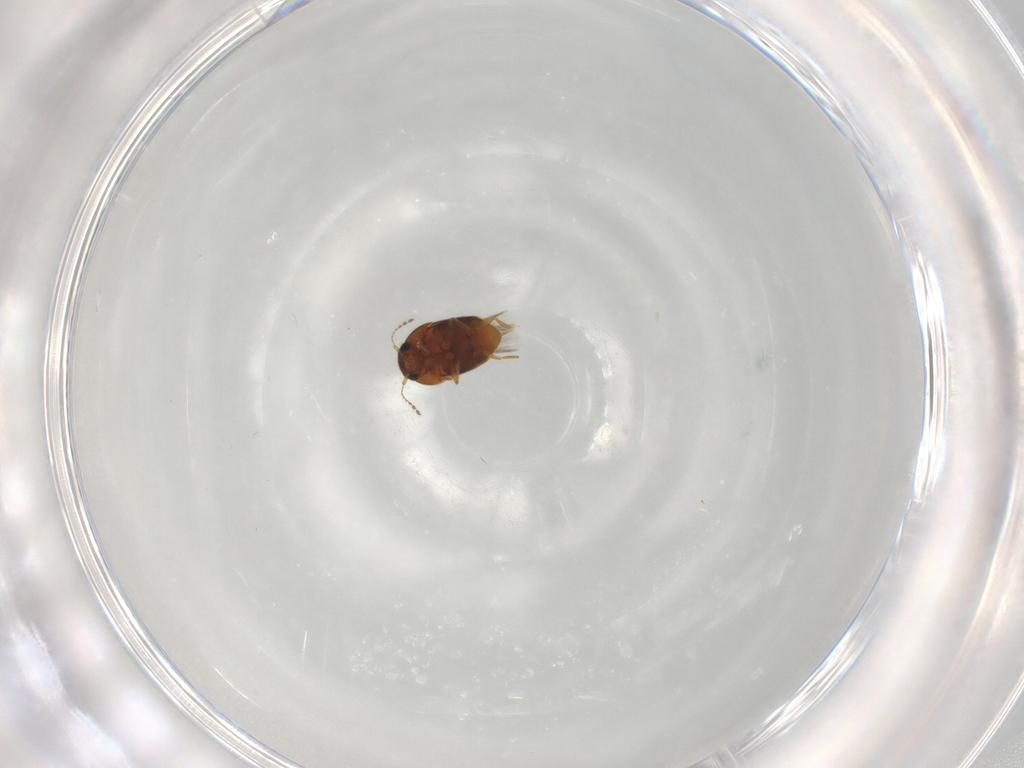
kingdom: Animalia
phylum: Arthropoda
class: Insecta
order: Coleoptera
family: Ptiliidae
